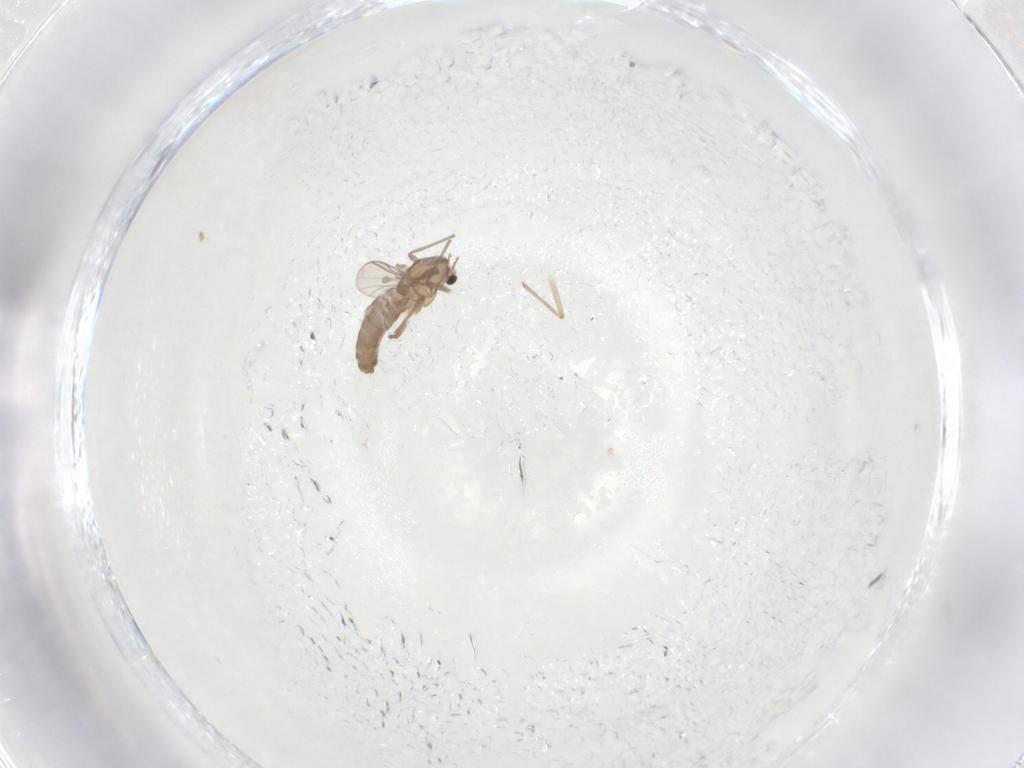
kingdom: Animalia
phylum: Arthropoda
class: Insecta
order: Diptera
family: Chironomidae
